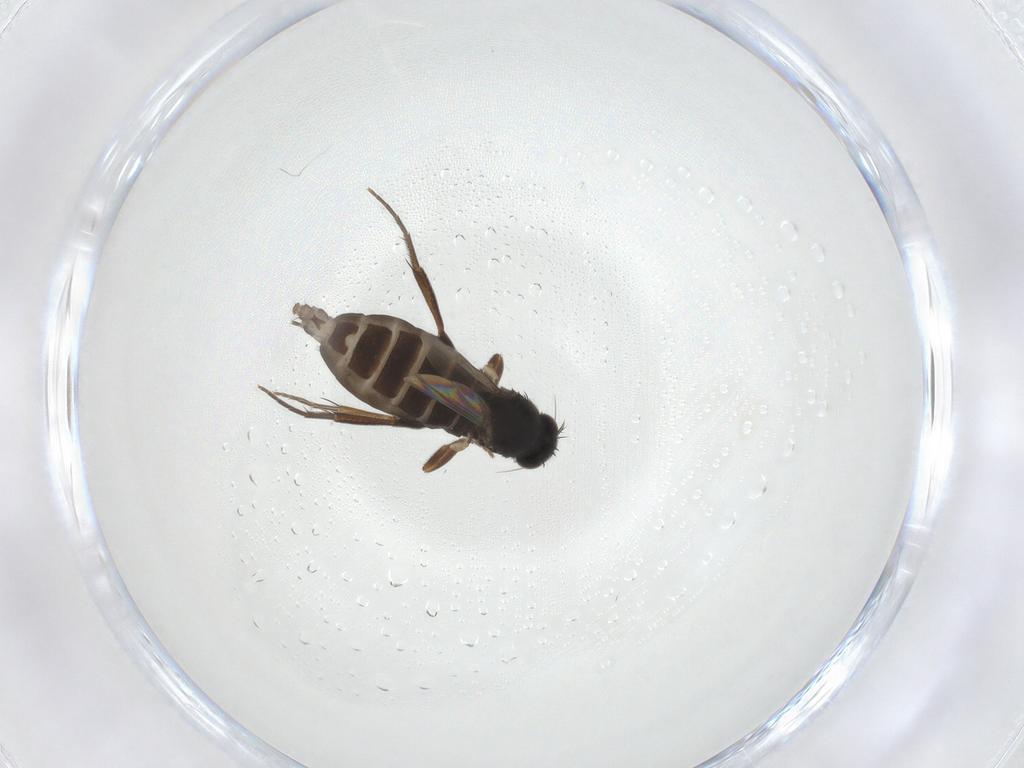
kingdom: Animalia
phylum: Arthropoda
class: Insecta
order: Diptera
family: Phoridae
